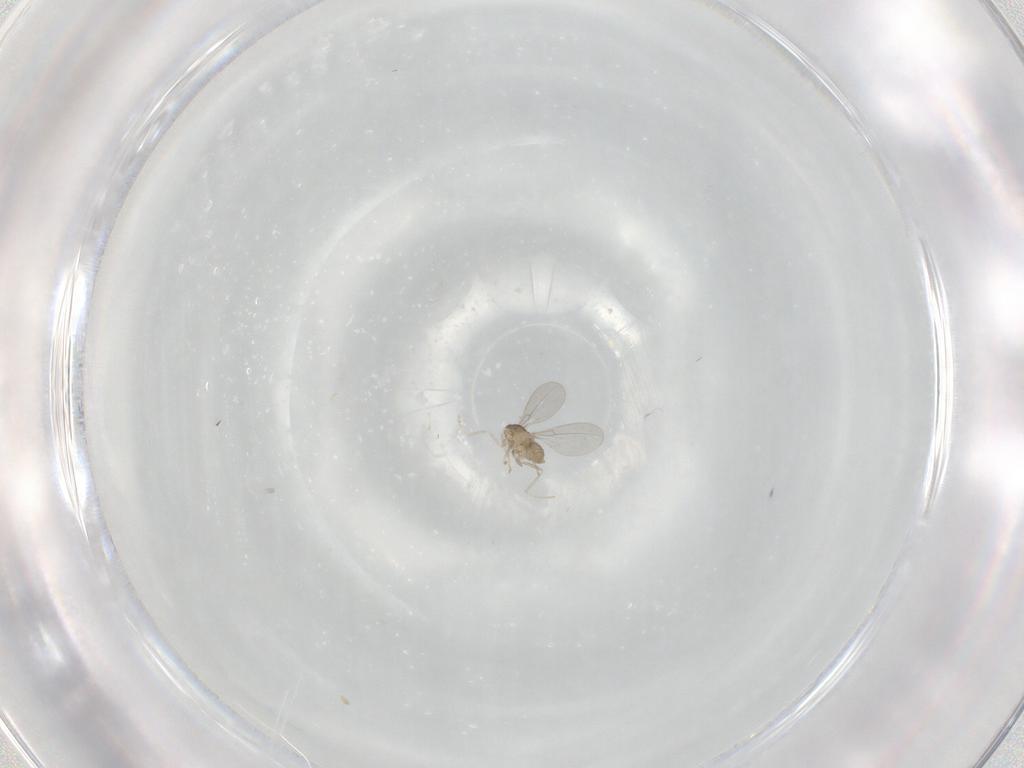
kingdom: Animalia
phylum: Arthropoda
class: Insecta
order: Diptera
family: Cecidomyiidae
